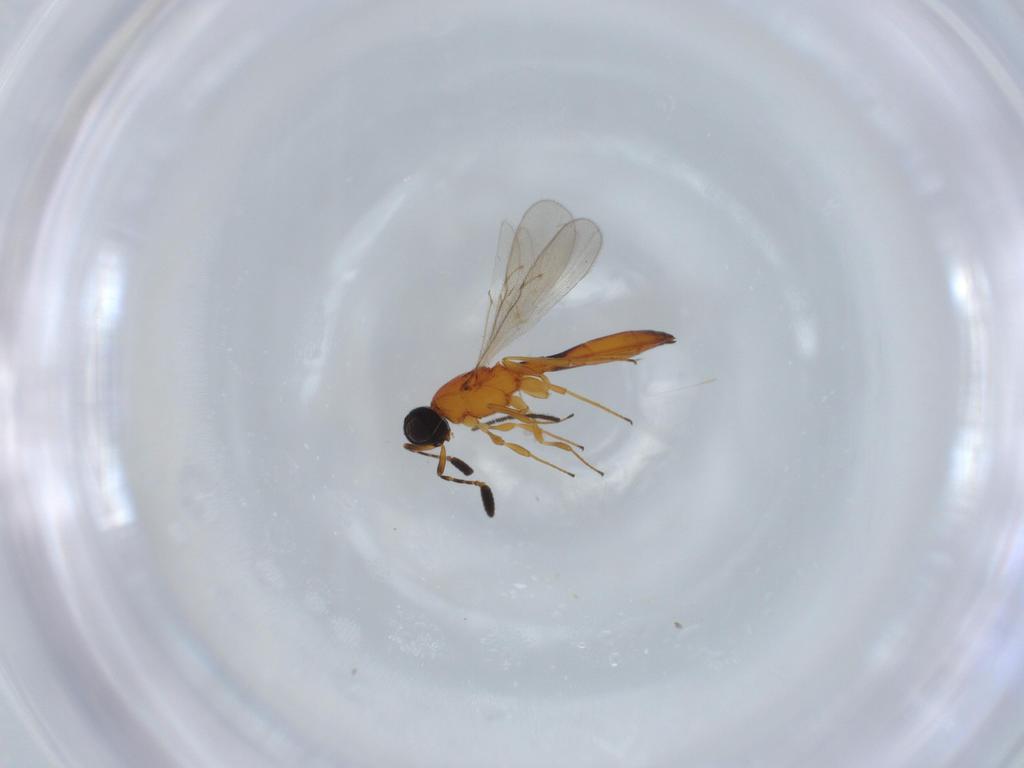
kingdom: Animalia
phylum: Arthropoda
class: Insecta
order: Hymenoptera
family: Scelionidae
